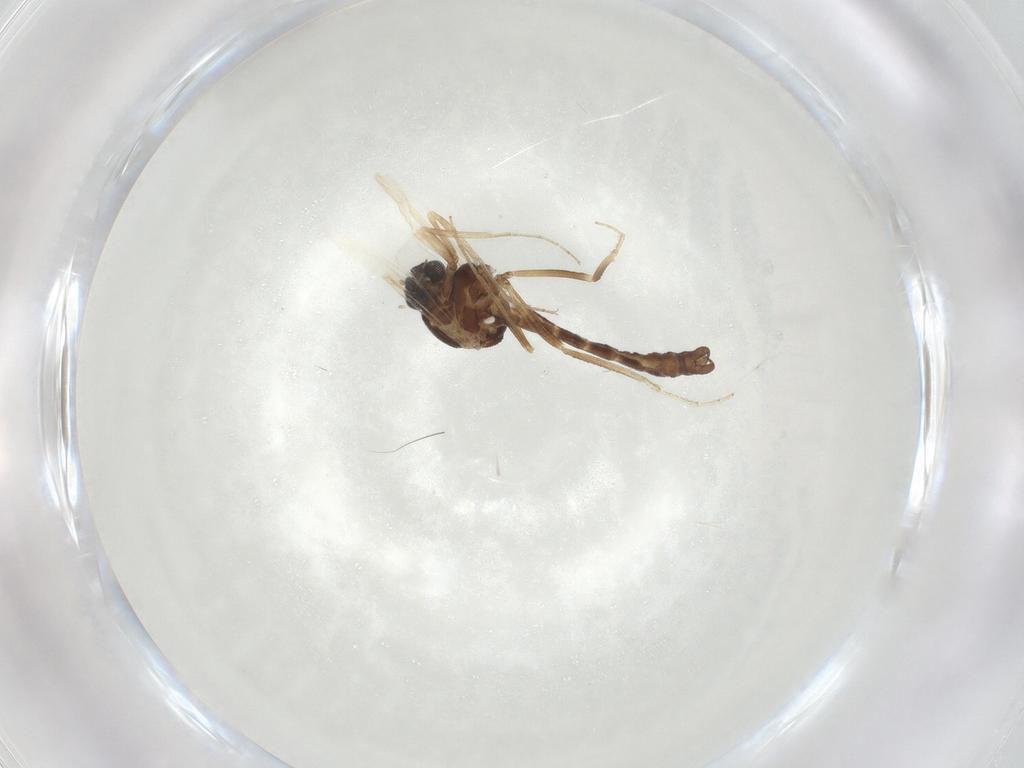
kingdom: Animalia
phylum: Arthropoda
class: Insecta
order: Diptera
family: Ceratopogonidae
